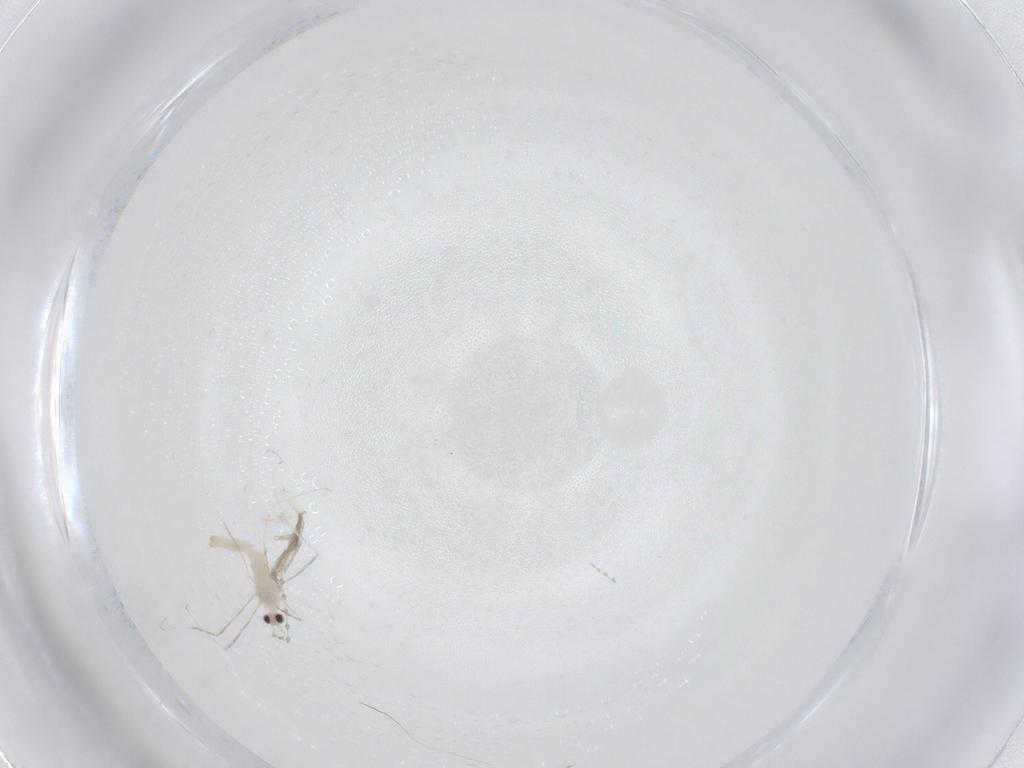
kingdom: Animalia
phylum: Arthropoda
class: Insecta
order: Diptera
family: Cecidomyiidae
